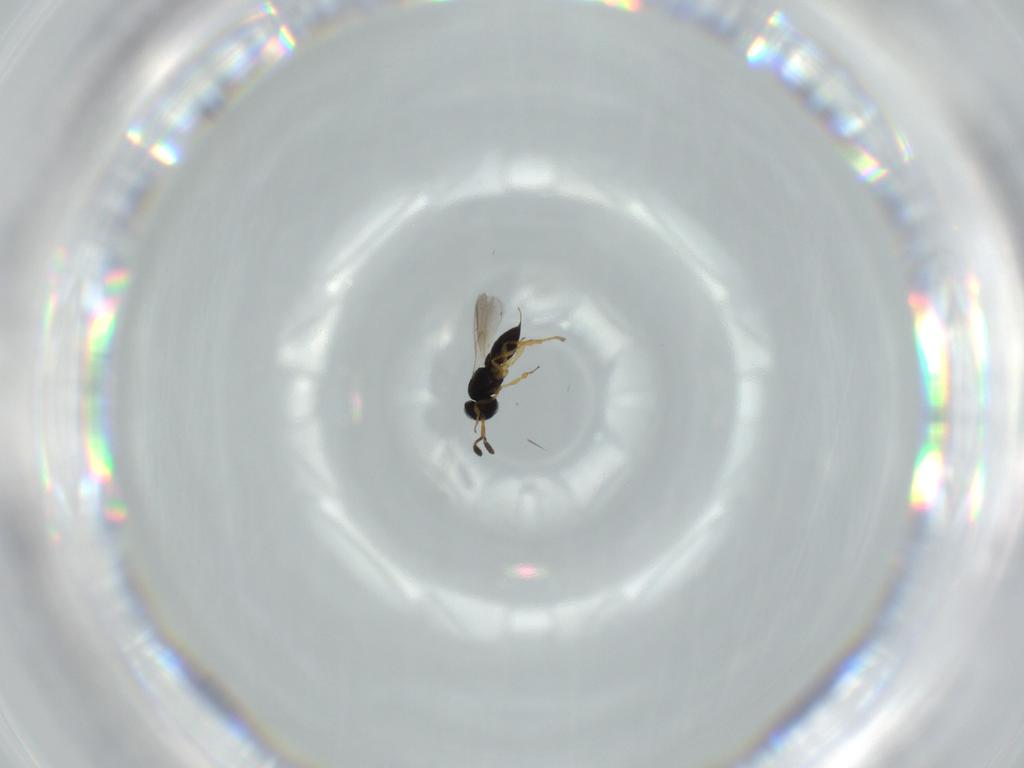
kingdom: Animalia
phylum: Arthropoda
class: Insecta
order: Hymenoptera
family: Scelionidae
